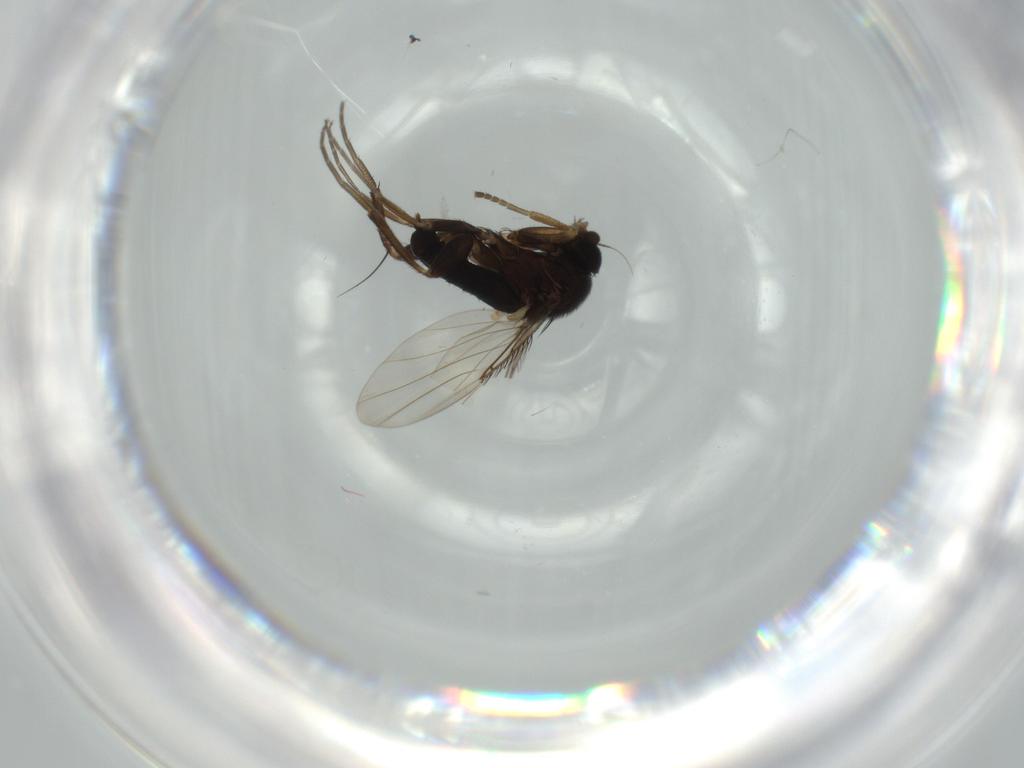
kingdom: Animalia
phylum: Arthropoda
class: Insecta
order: Diptera
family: Phoridae
